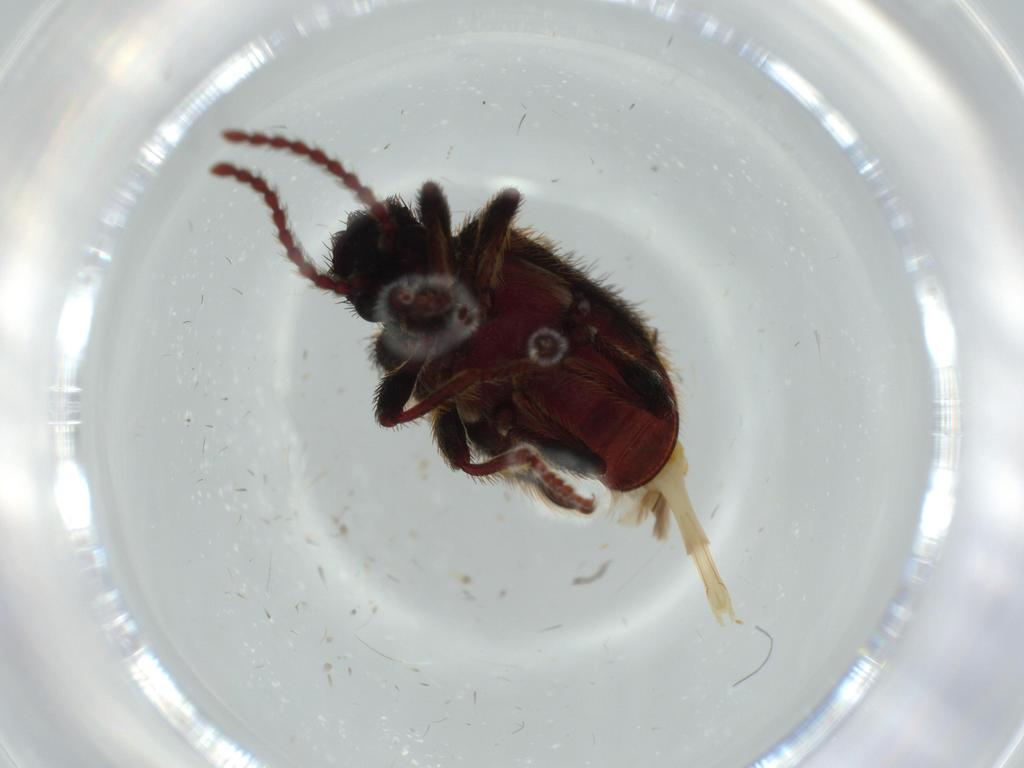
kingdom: Animalia
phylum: Arthropoda
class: Insecta
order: Coleoptera
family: Ptinidae
